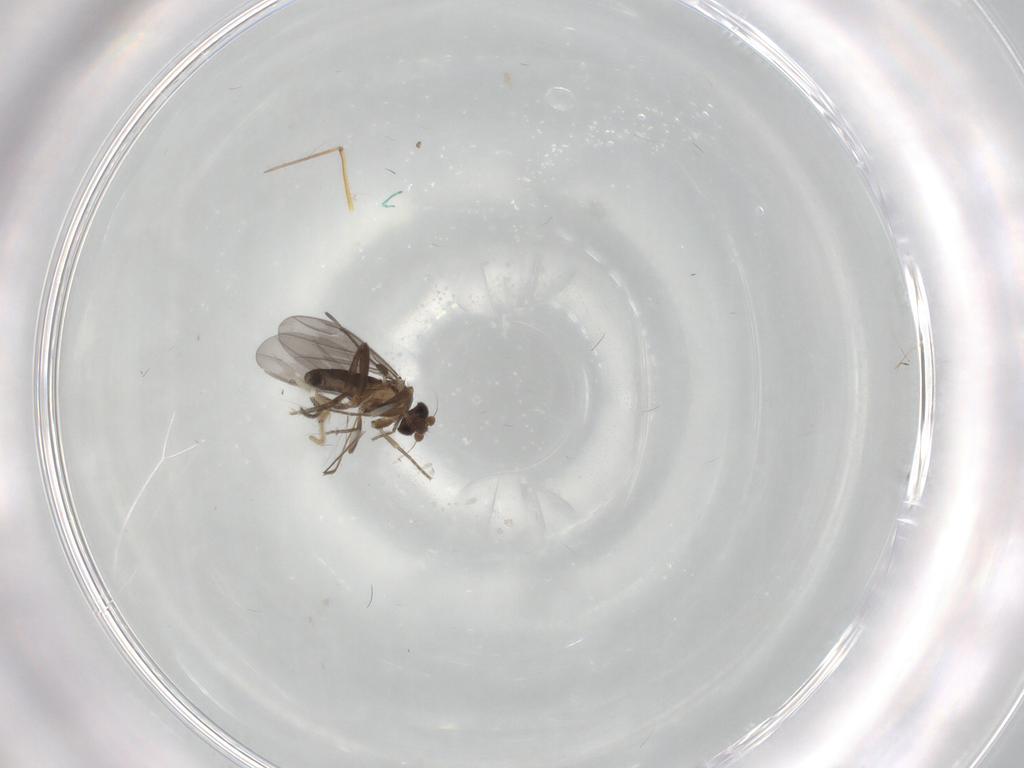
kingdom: Animalia
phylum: Arthropoda
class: Insecta
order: Diptera
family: Chironomidae
